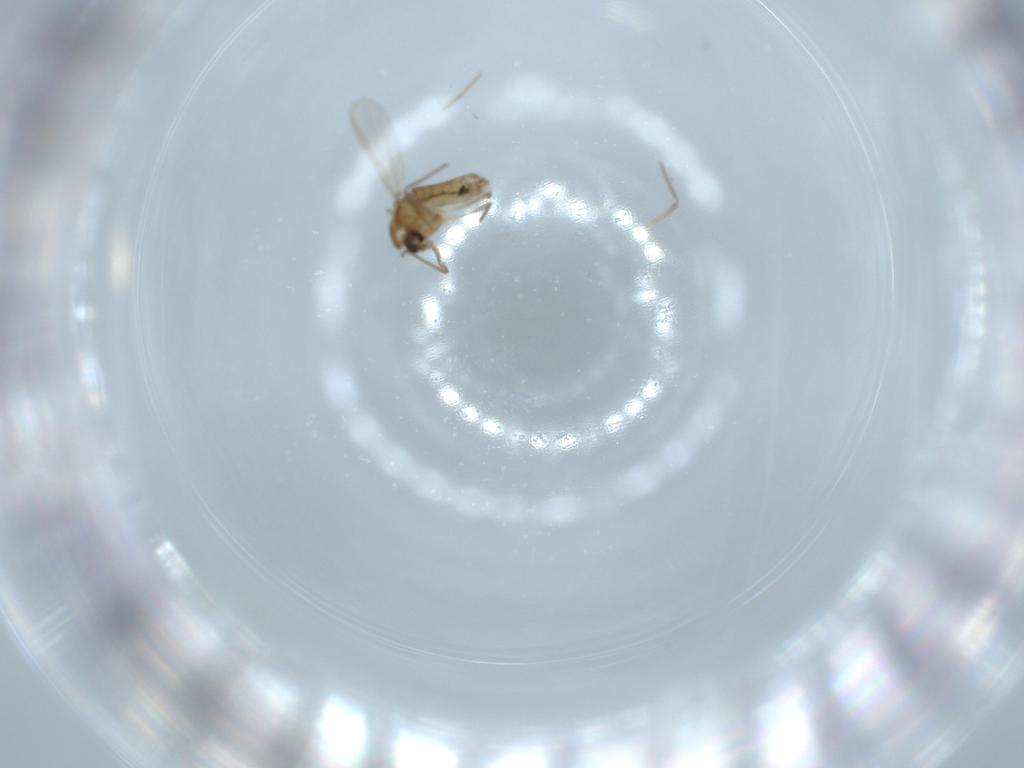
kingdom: Animalia
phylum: Arthropoda
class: Insecta
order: Diptera
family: Chironomidae
